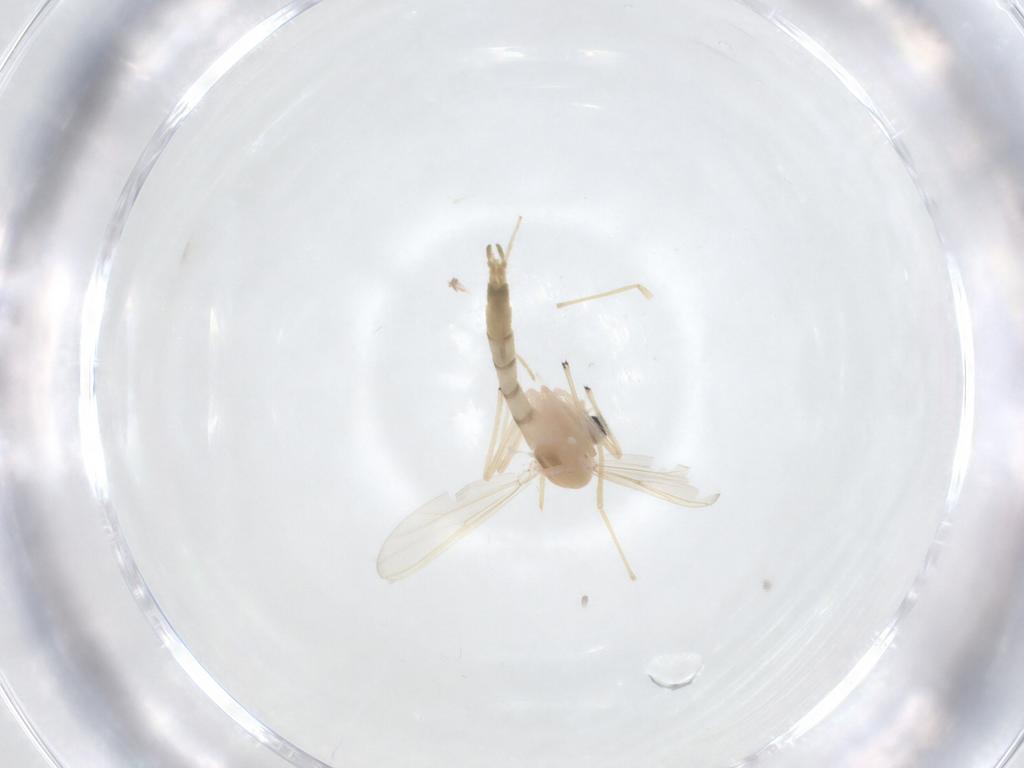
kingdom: Animalia
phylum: Arthropoda
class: Insecta
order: Diptera
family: Chironomidae
